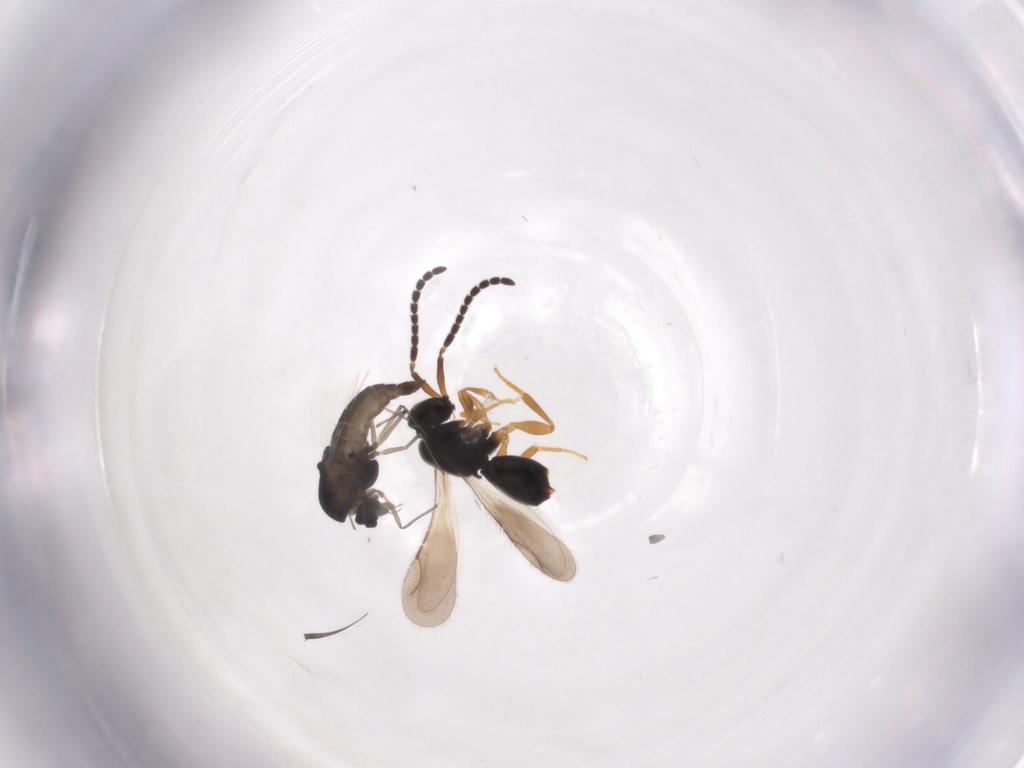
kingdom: Animalia
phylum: Arthropoda
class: Insecta
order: Diptera
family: Chironomidae
